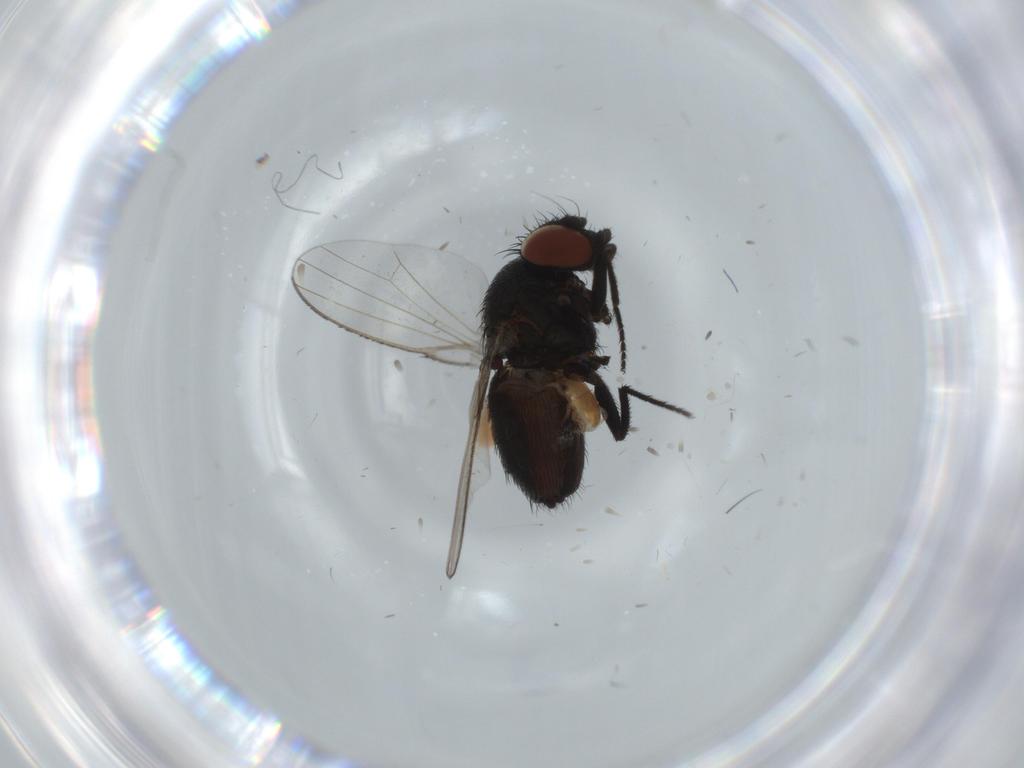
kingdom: Animalia
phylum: Arthropoda
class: Insecta
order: Diptera
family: Milichiidae
